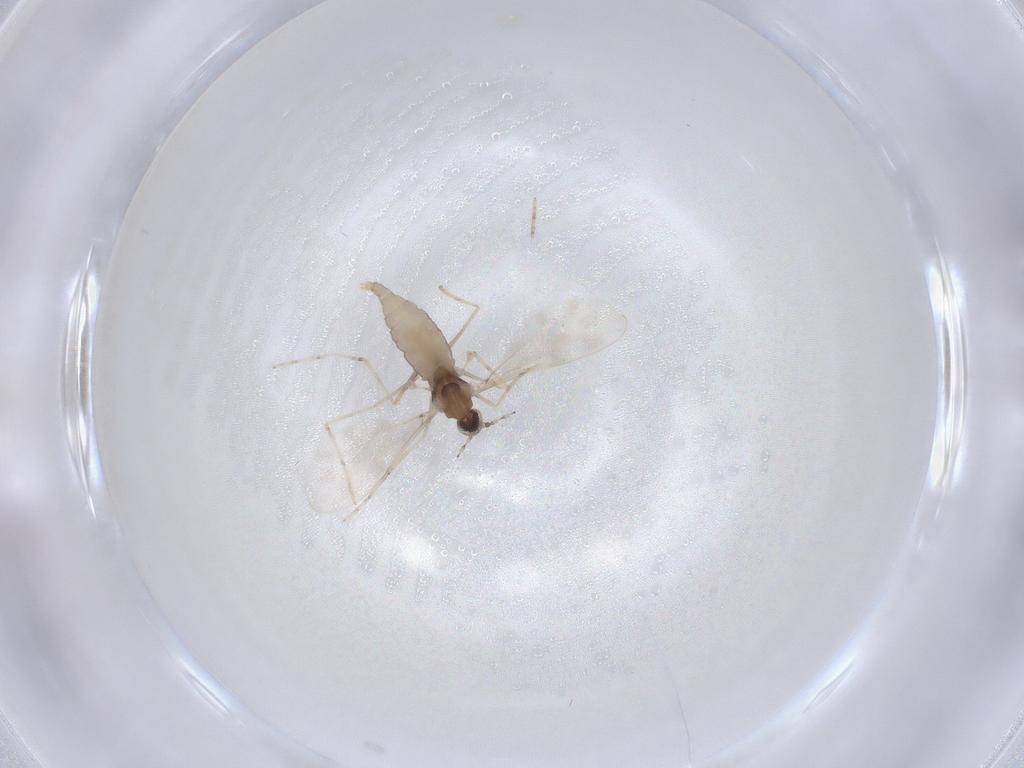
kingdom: Animalia
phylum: Arthropoda
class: Insecta
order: Diptera
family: Cecidomyiidae
